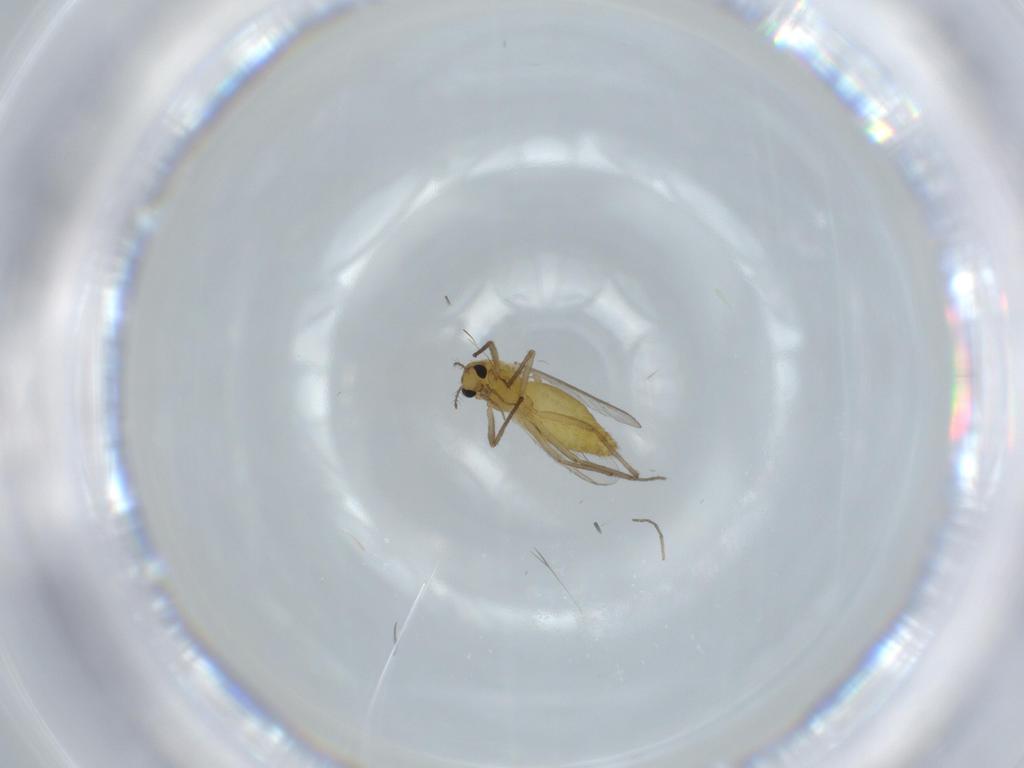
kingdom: Animalia
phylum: Arthropoda
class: Insecta
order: Diptera
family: Chironomidae
